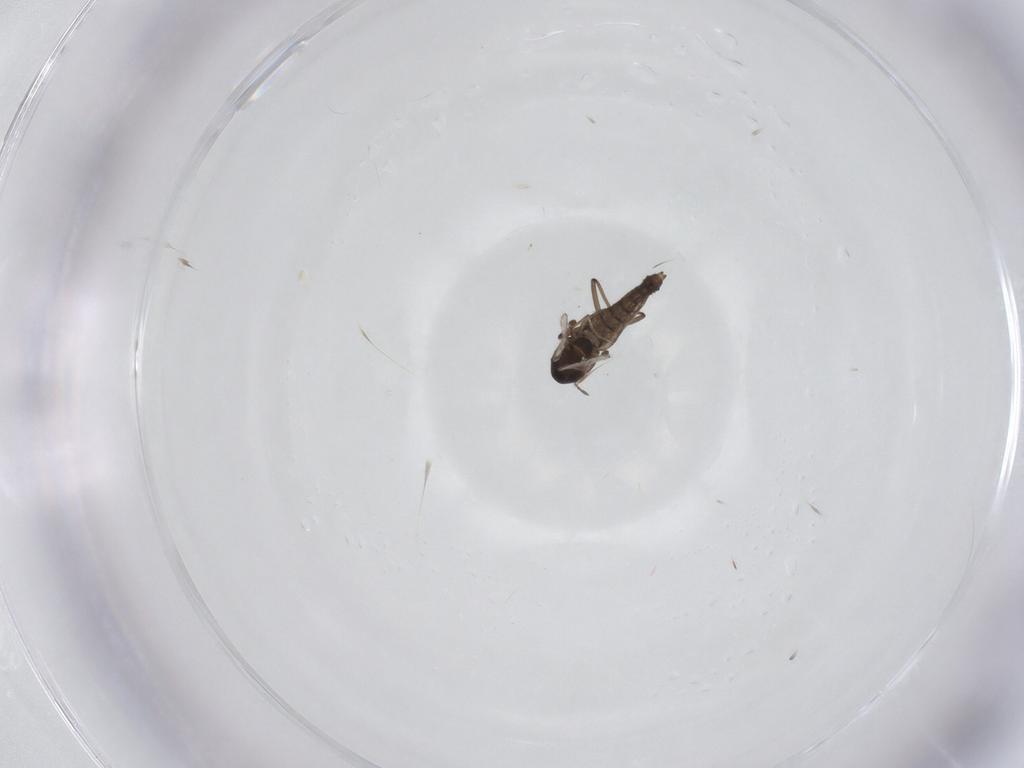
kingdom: Animalia
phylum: Arthropoda
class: Insecta
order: Diptera
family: Chironomidae
